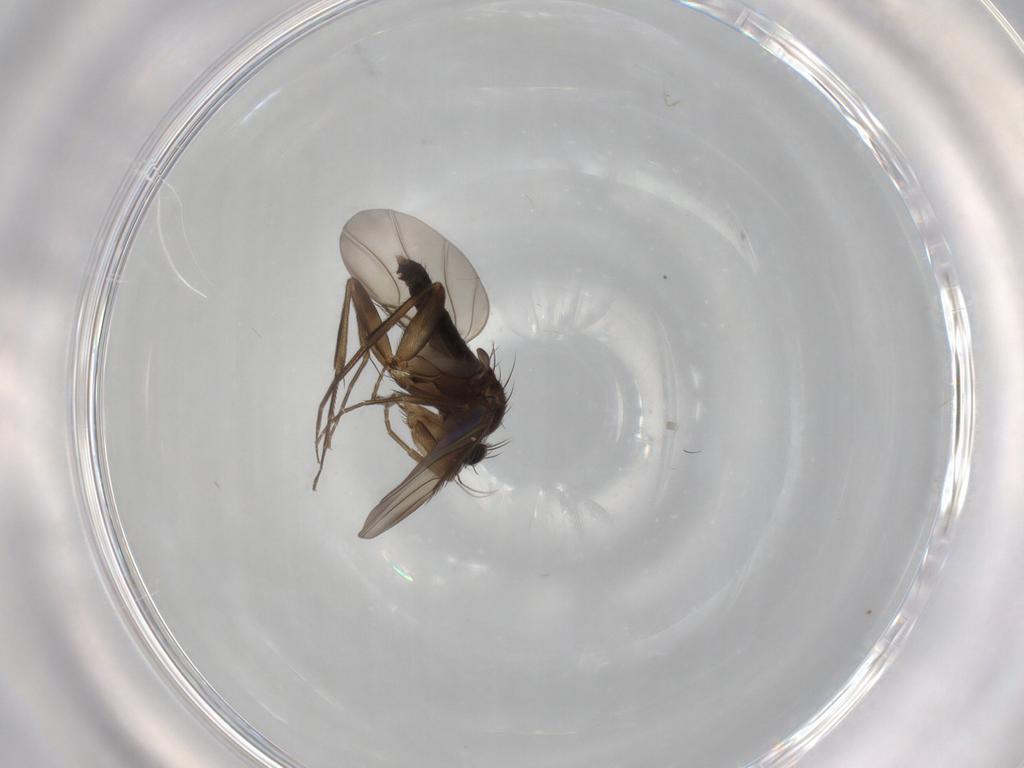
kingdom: Animalia
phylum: Arthropoda
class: Insecta
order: Diptera
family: Phoridae
